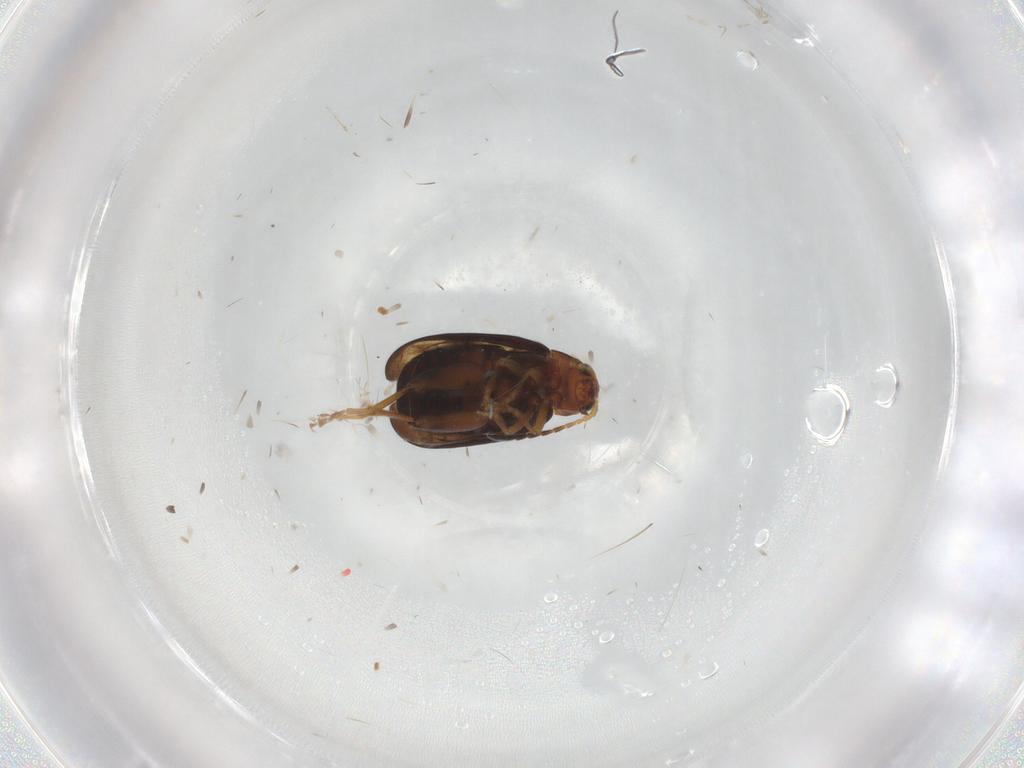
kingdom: Animalia
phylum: Arthropoda
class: Insecta
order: Coleoptera
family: Chrysomelidae
